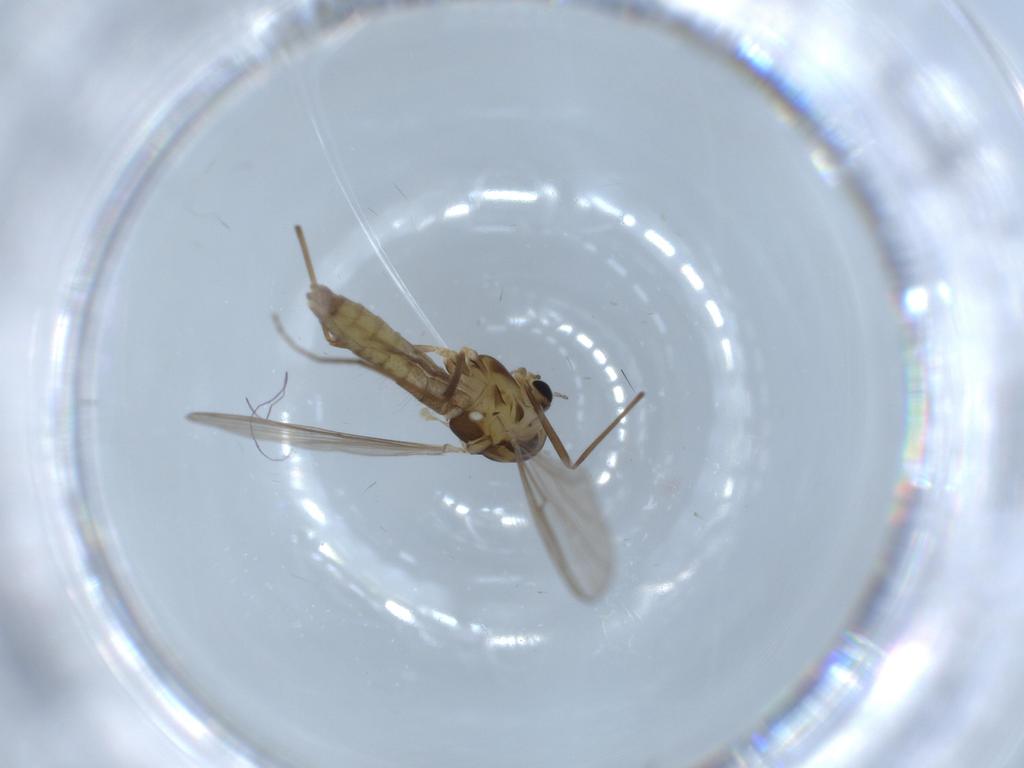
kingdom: Animalia
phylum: Arthropoda
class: Insecta
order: Diptera
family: Chironomidae
